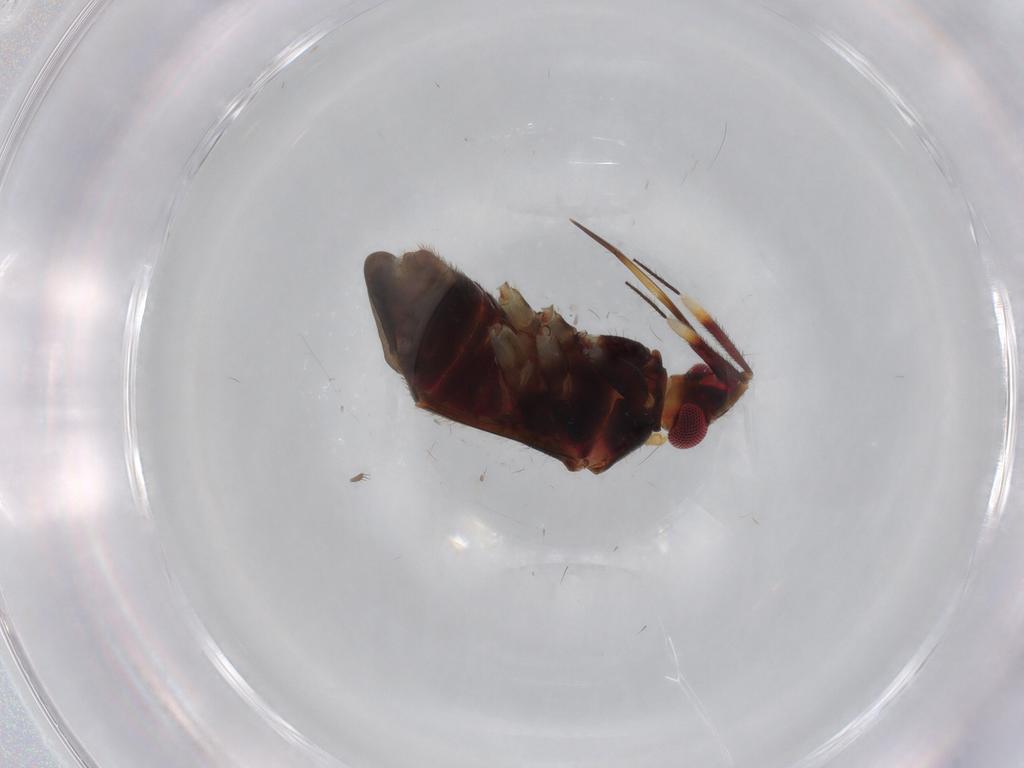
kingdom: Animalia
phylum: Arthropoda
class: Insecta
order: Hemiptera
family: Miridae
